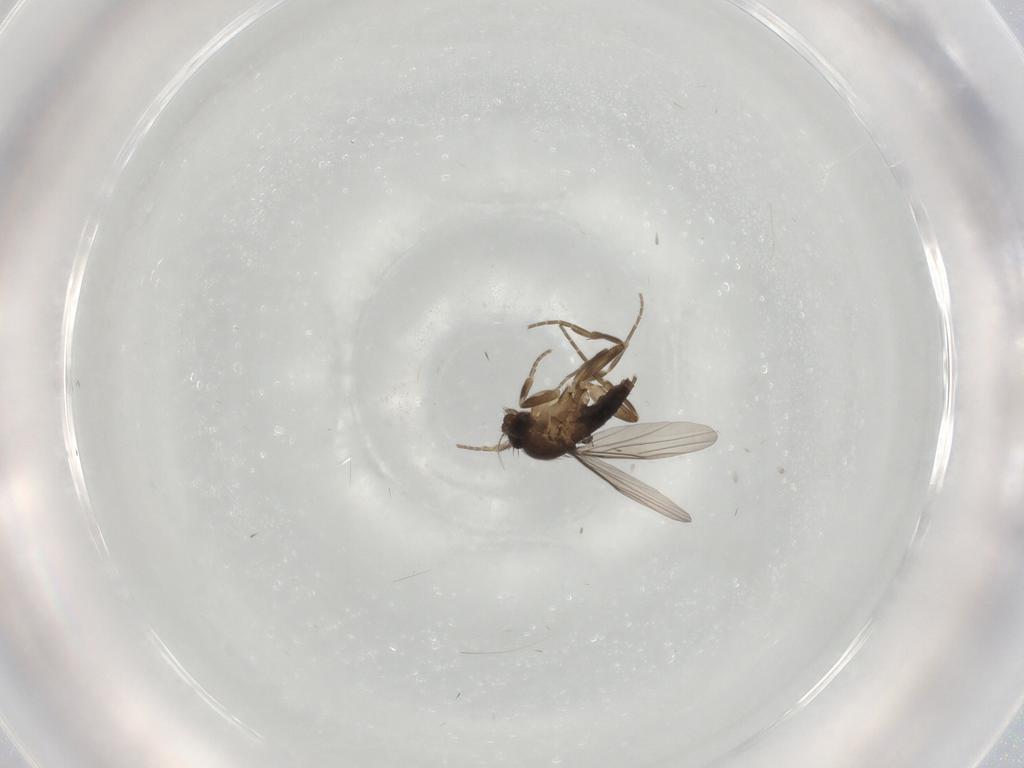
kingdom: Animalia
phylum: Arthropoda
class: Insecta
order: Diptera
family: Phoridae
